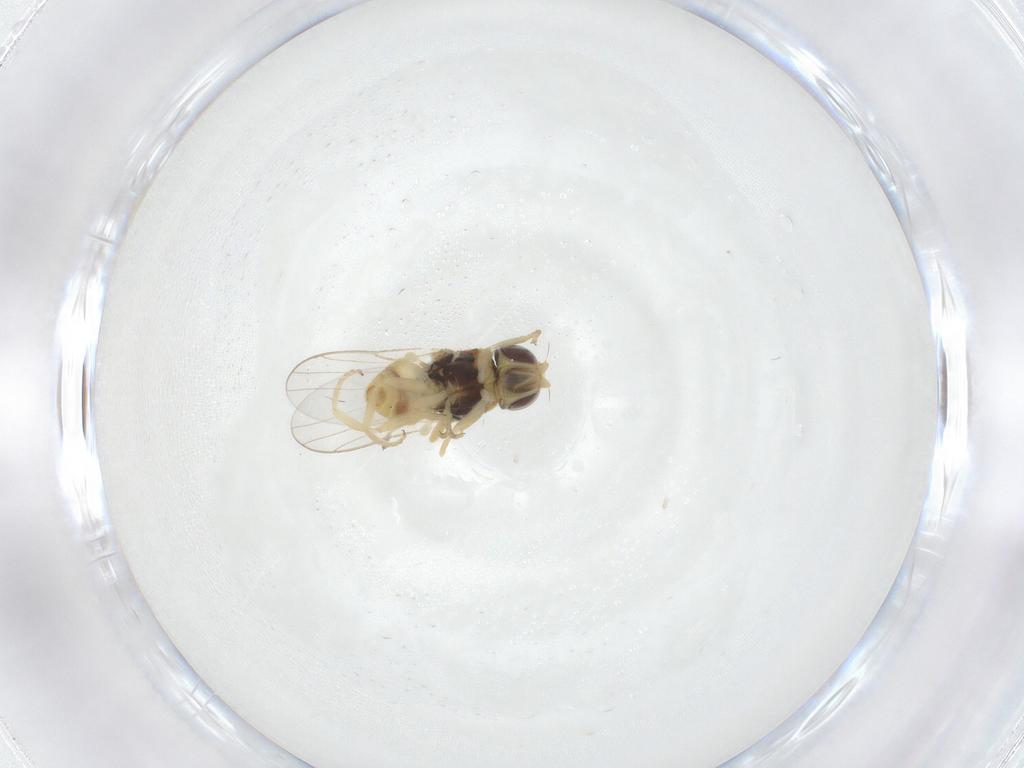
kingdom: Animalia
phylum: Arthropoda
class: Insecta
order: Diptera
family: Chloropidae
